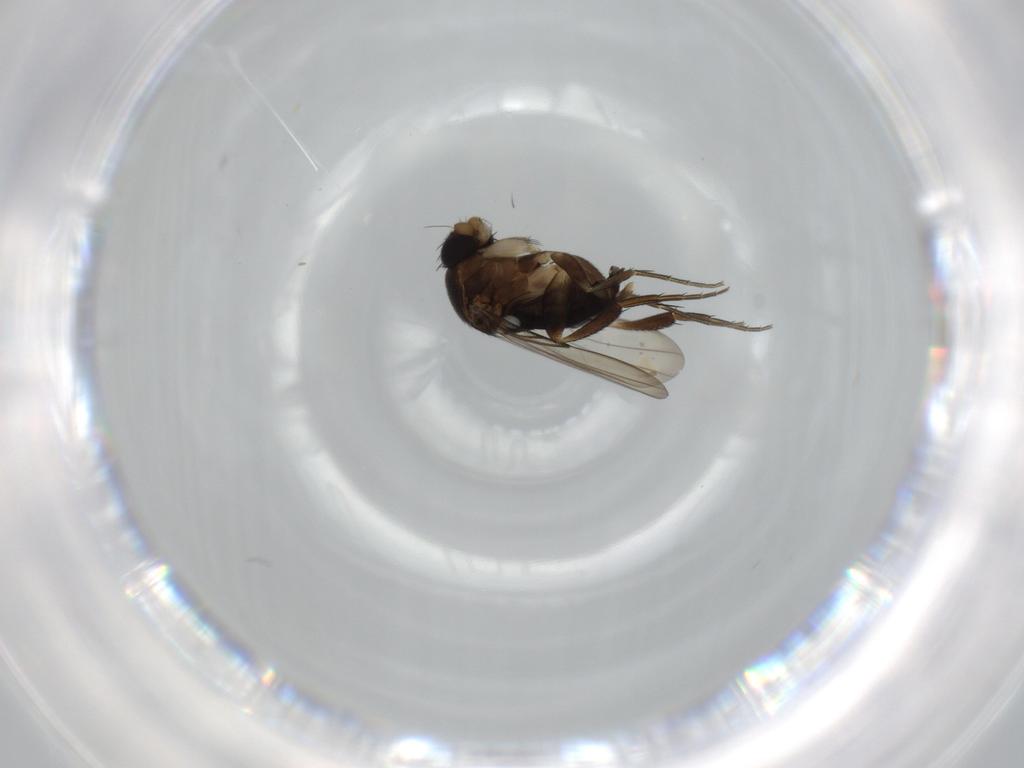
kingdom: Animalia
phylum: Arthropoda
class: Insecta
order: Diptera
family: Phoridae
